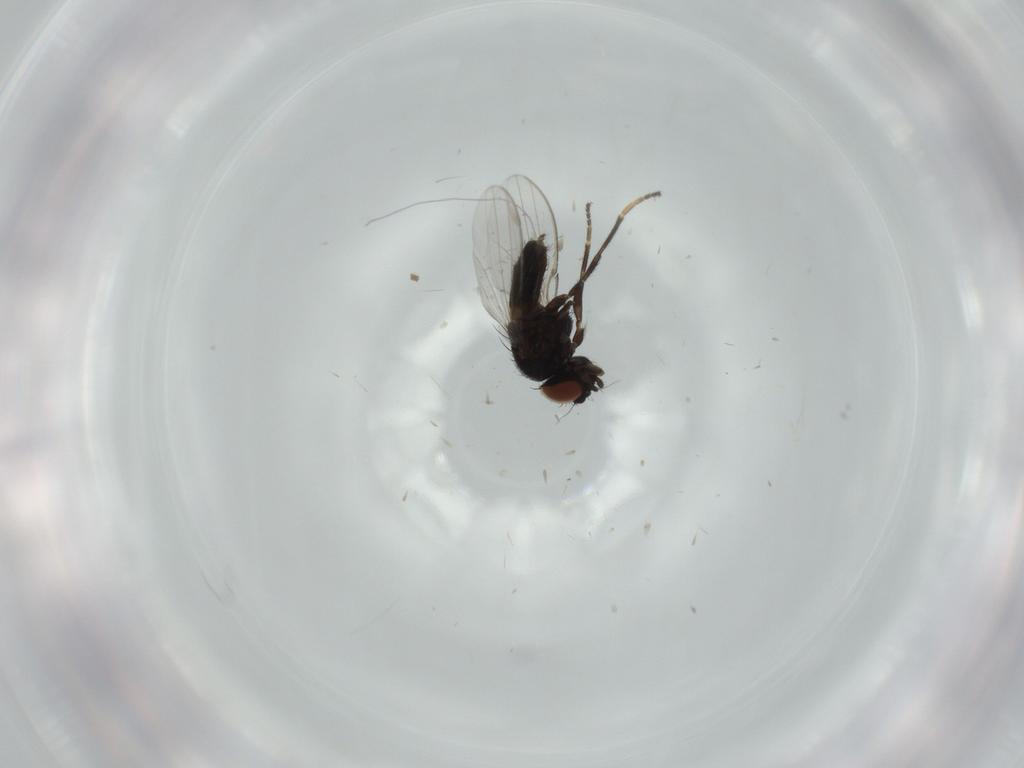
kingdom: Animalia
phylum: Arthropoda
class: Insecta
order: Diptera
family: Milichiidae
